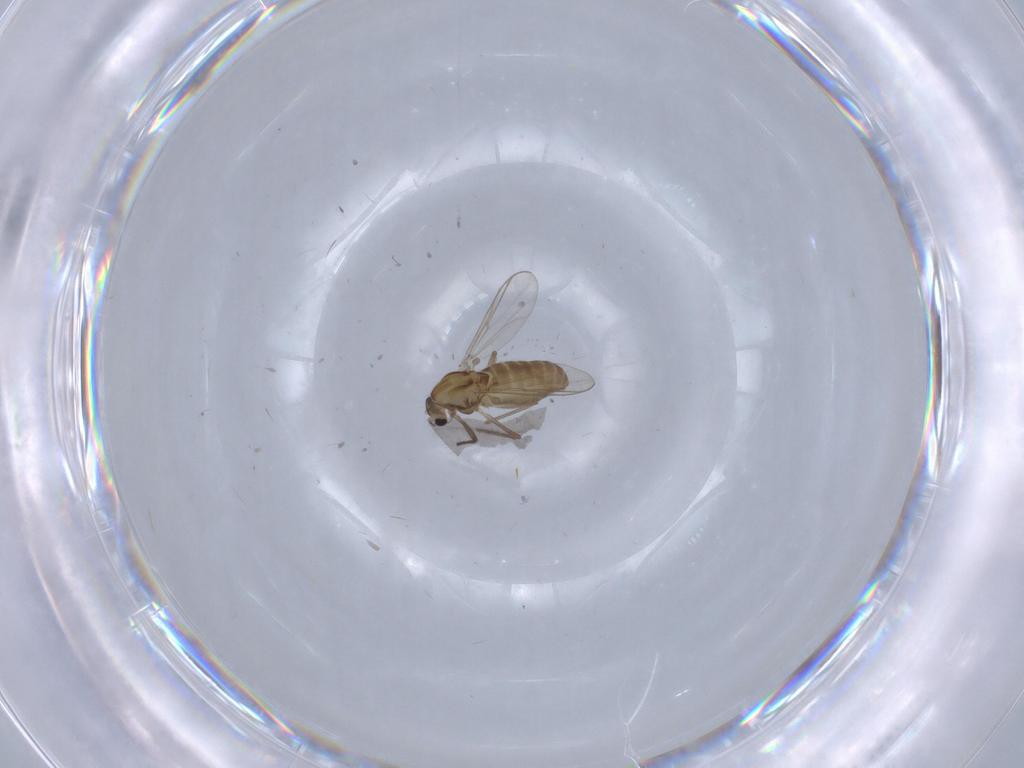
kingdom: Animalia
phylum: Arthropoda
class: Insecta
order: Diptera
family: Chironomidae
